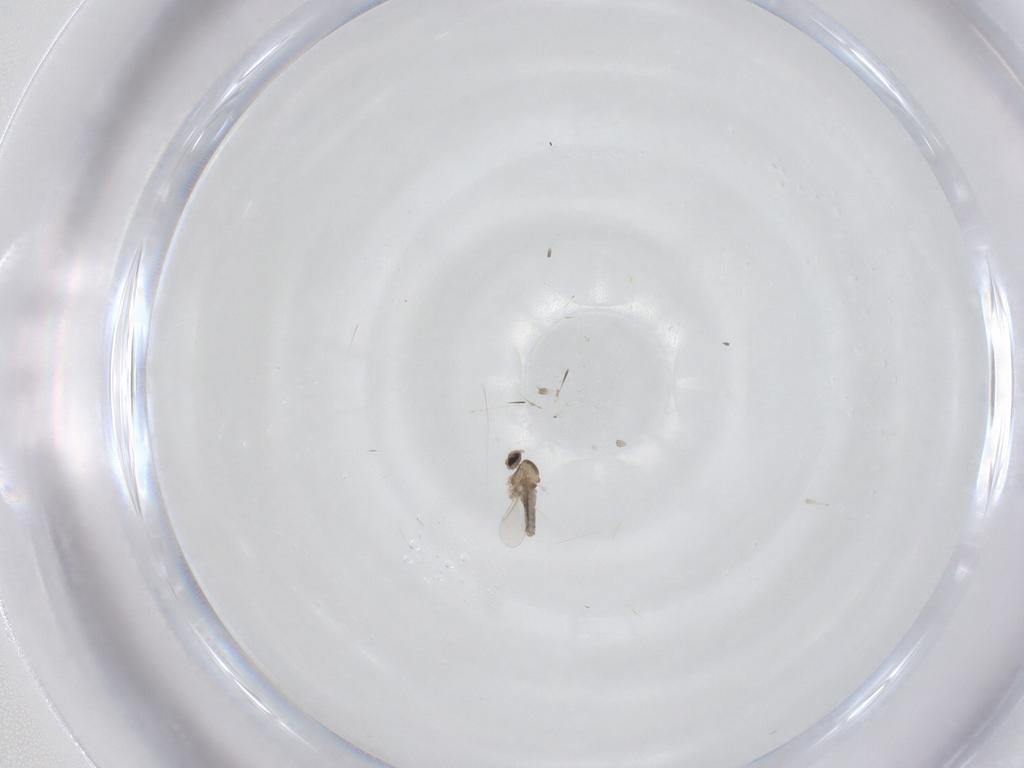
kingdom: Animalia
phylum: Arthropoda
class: Insecta
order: Diptera
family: Cecidomyiidae
